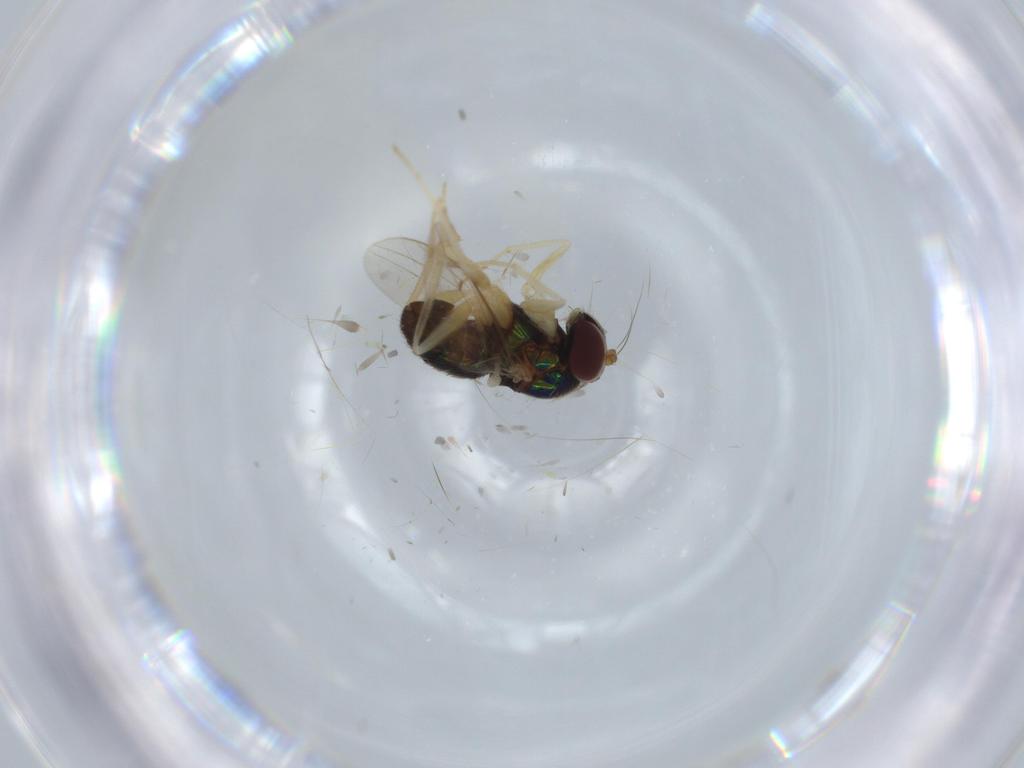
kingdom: Animalia
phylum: Arthropoda
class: Insecta
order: Diptera
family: Dolichopodidae
